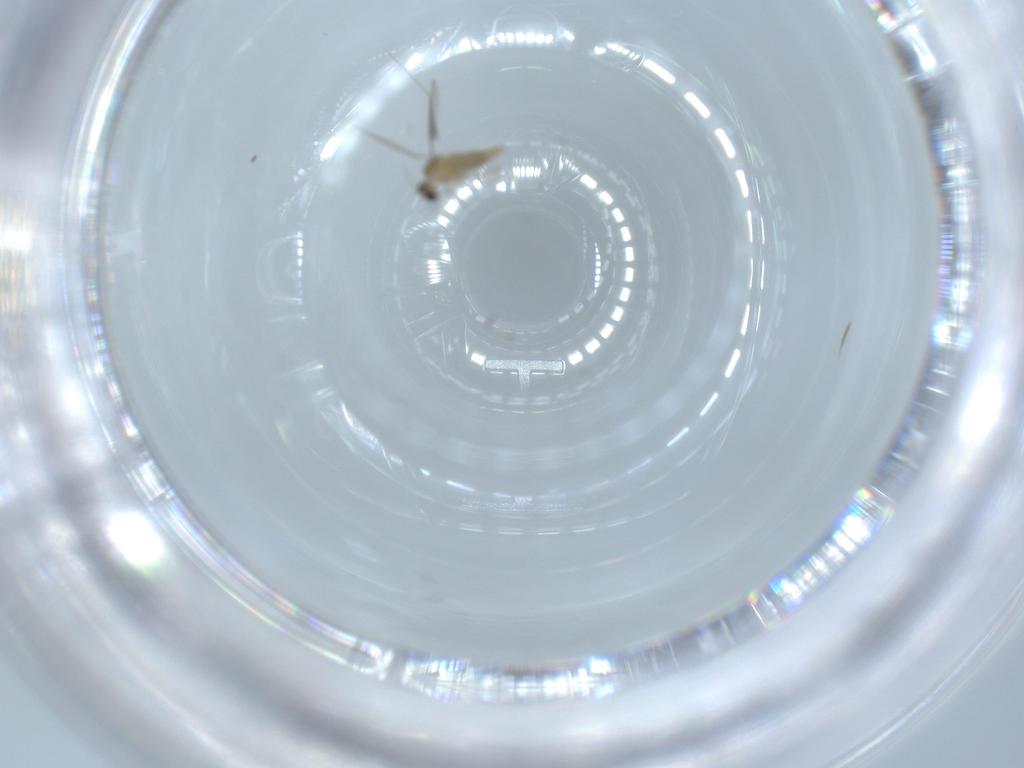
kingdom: Animalia
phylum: Arthropoda
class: Insecta
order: Diptera
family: Cecidomyiidae
